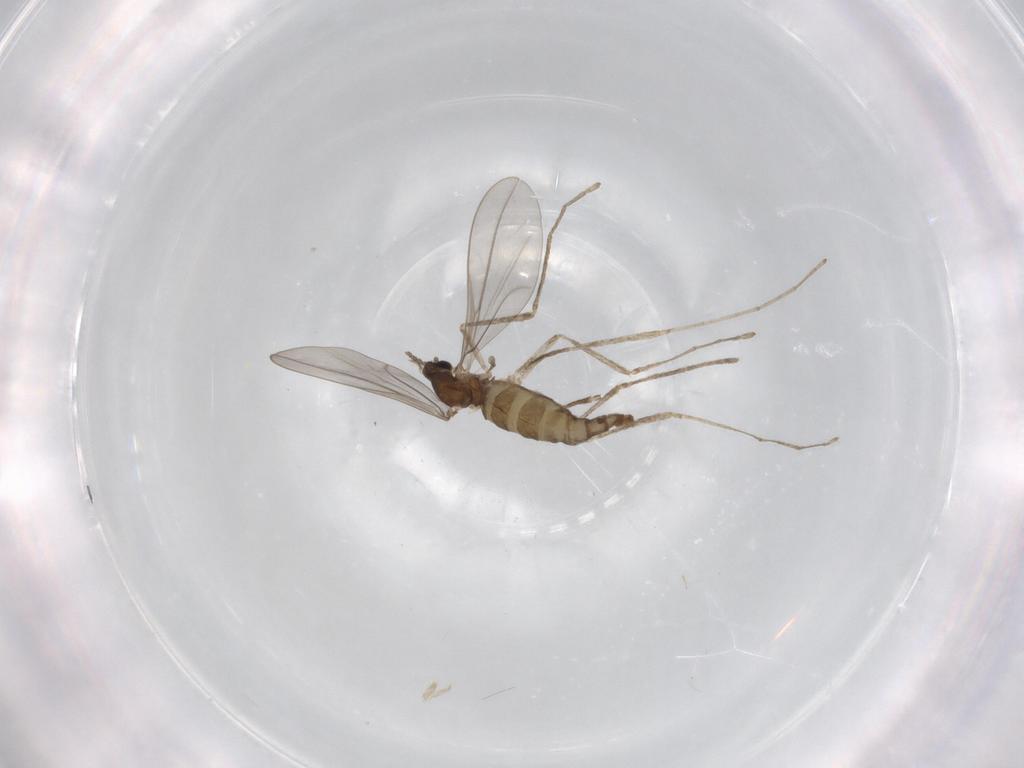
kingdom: Animalia
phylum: Arthropoda
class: Insecta
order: Diptera
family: Cecidomyiidae
